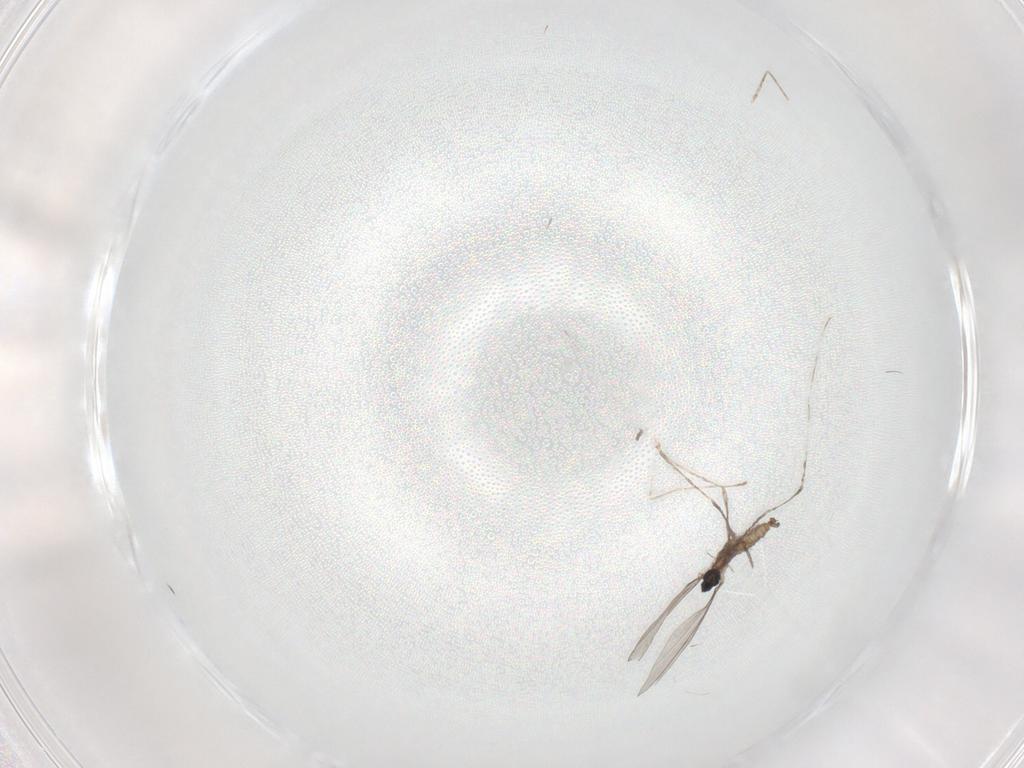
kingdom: Animalia
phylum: Arthropoda
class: Insecta
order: Diptera
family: Cecidomyiidae
